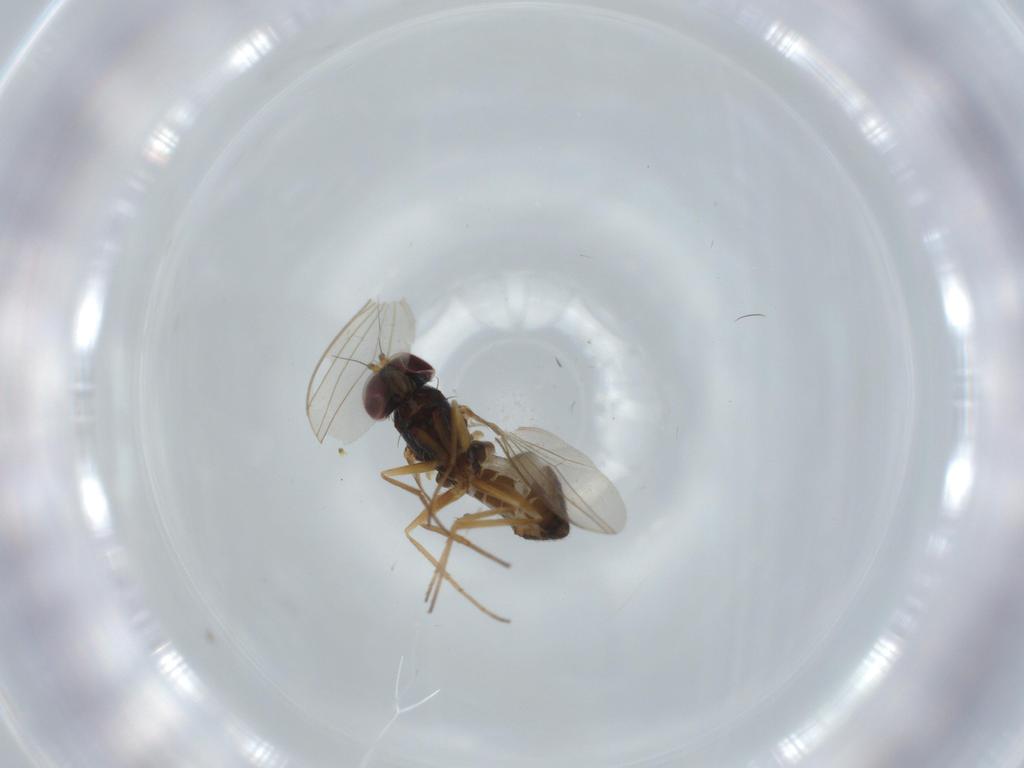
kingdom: Animalia
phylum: Arthropoda
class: Insecta
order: Diptera
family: Dolichopodidae
